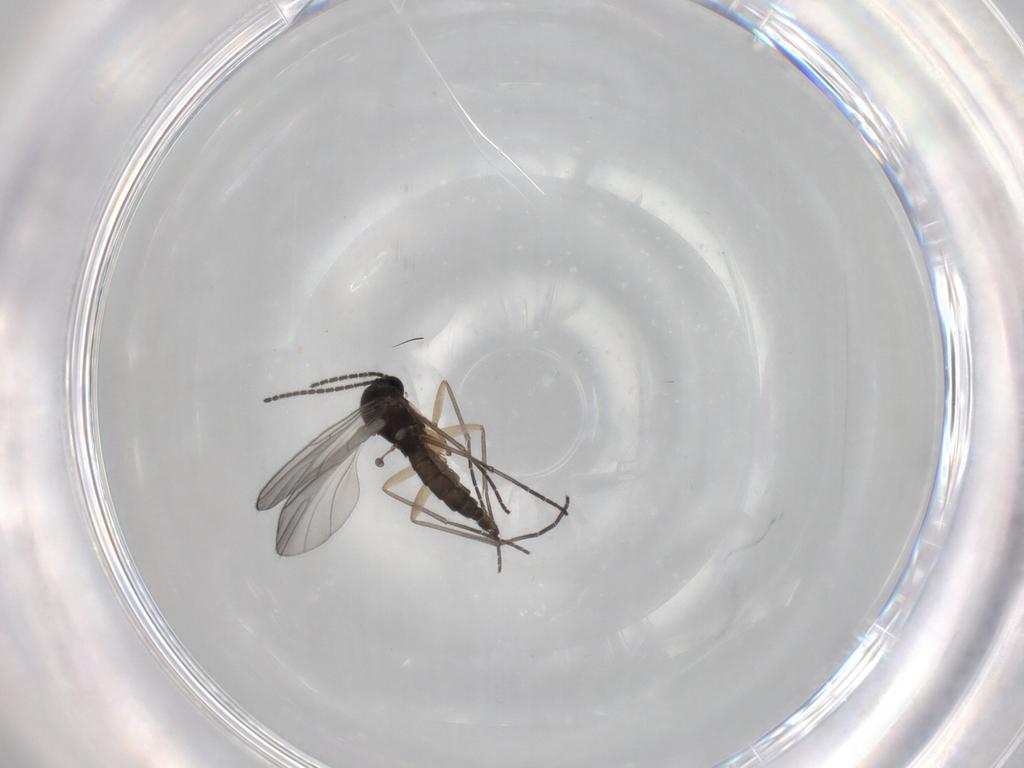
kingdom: Animalia
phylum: Arthropoda
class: Insecta
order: Diptera
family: Sciaridae
